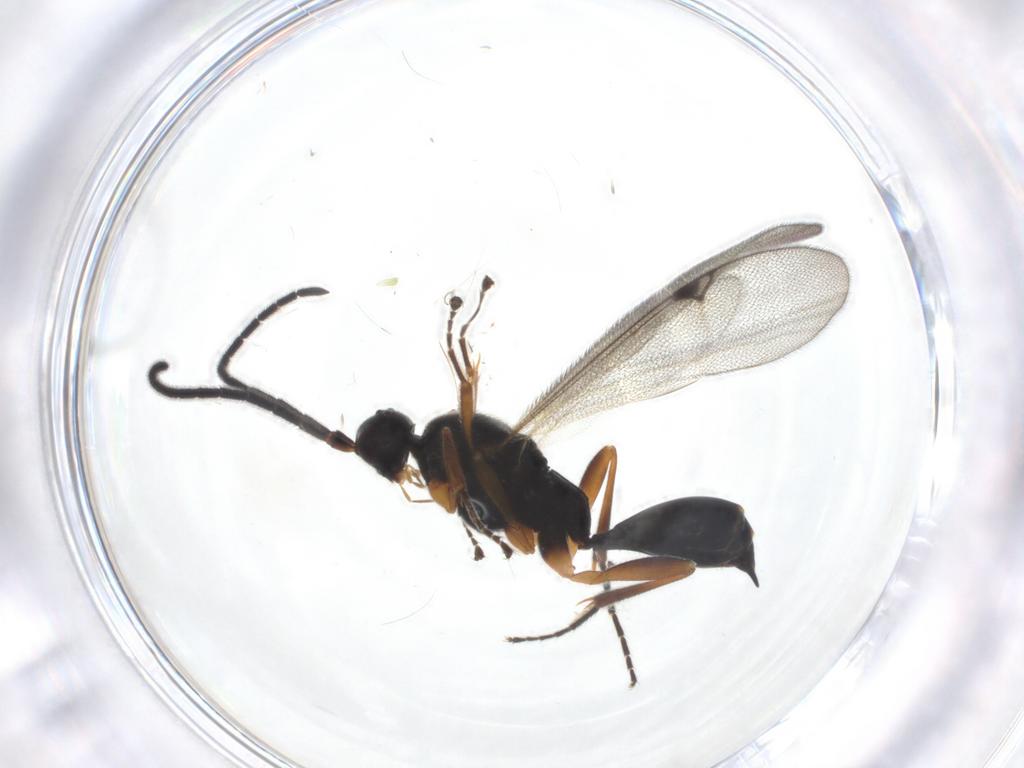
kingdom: Animalia
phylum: Arthropoda
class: Insecta
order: Hymenoptera
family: Proctotrupidae
